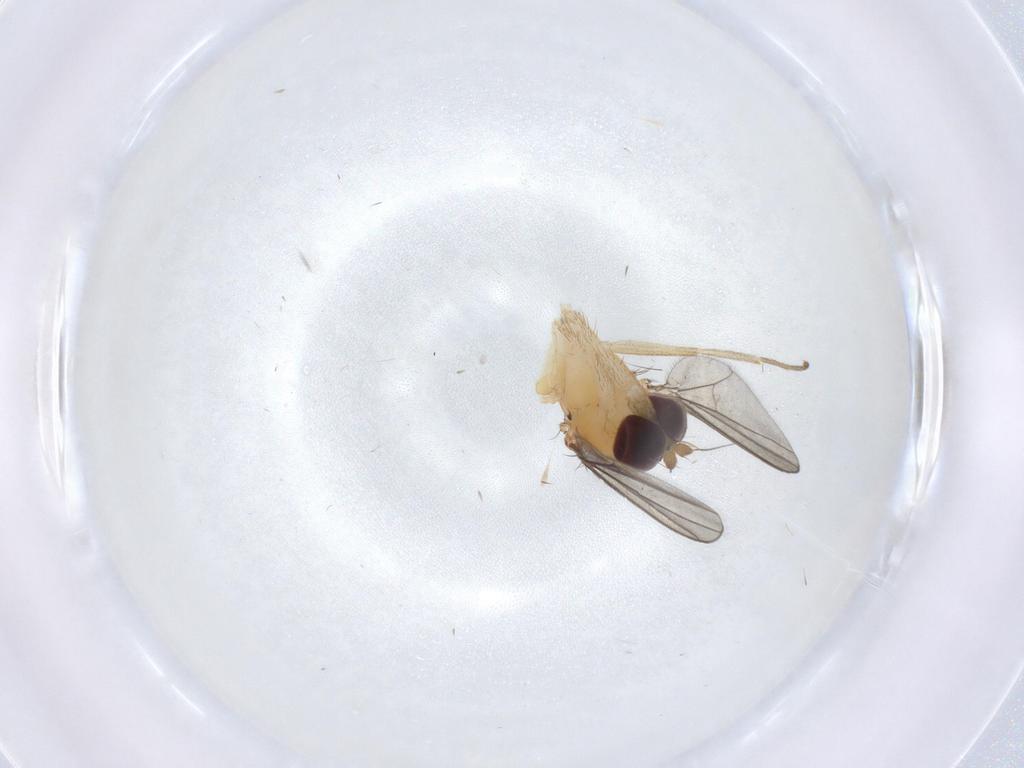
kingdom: Animalia
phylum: Arthropoda
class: Insecta
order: Diptera
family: Dolichopodidae
